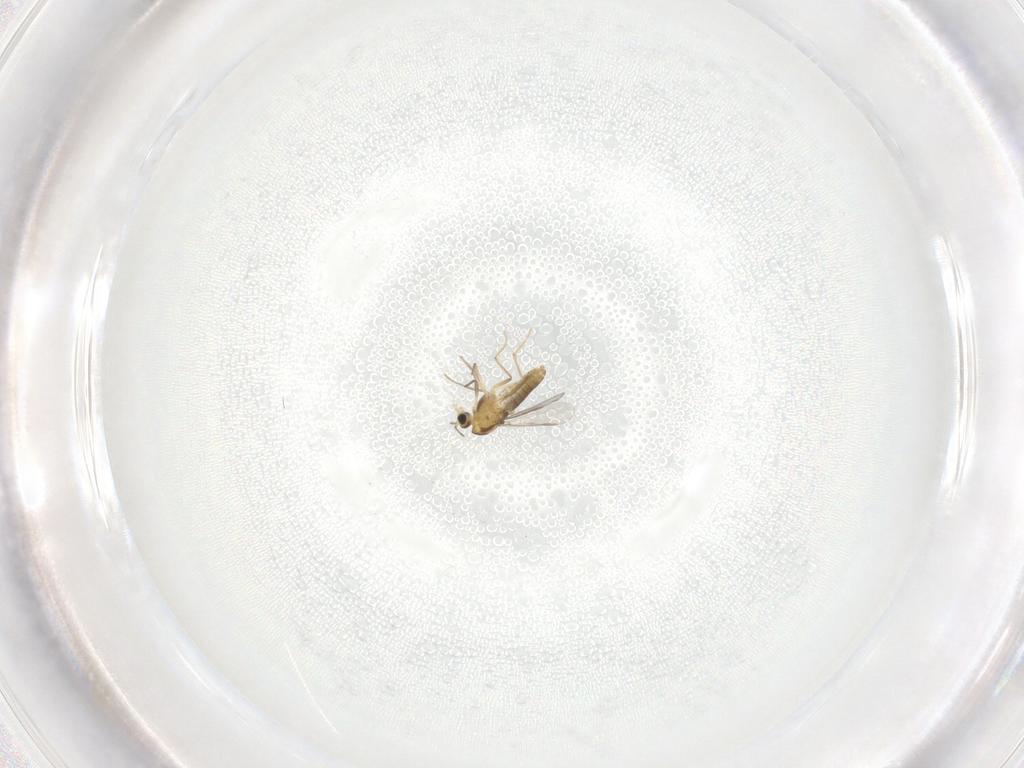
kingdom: Animalia
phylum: Arthropoda
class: Insecta
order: Diptera
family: Chironomidae
